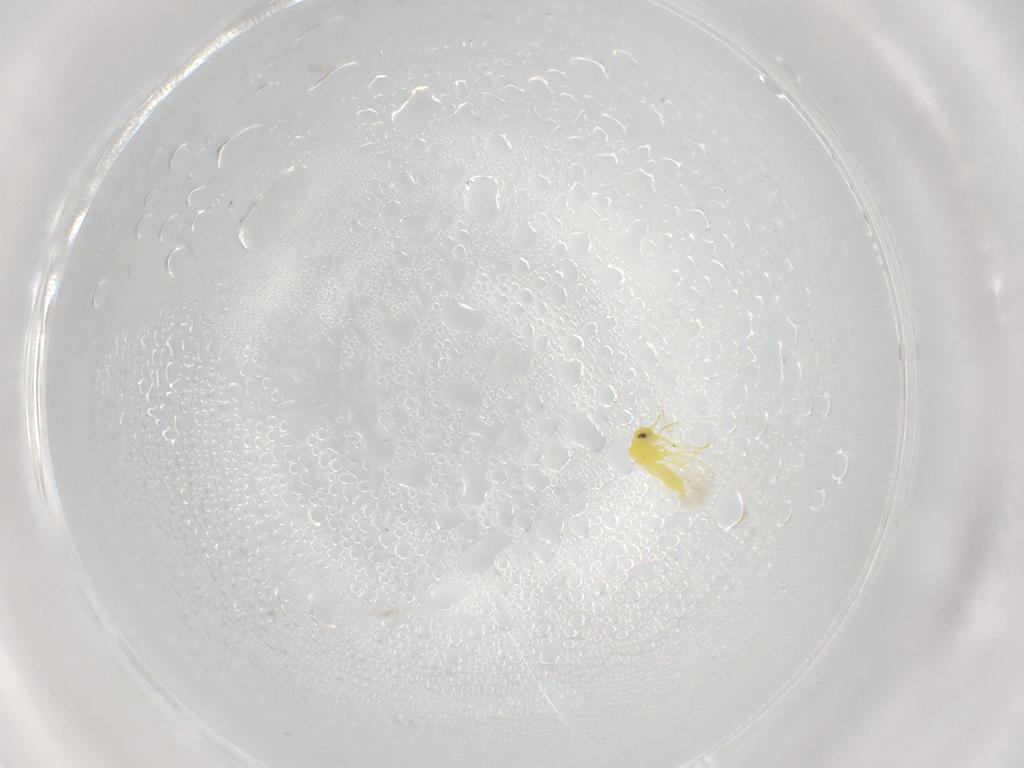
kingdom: Animalia
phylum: Arthropoda
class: Insecta
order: Hemiptera
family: Aleyrodidae
